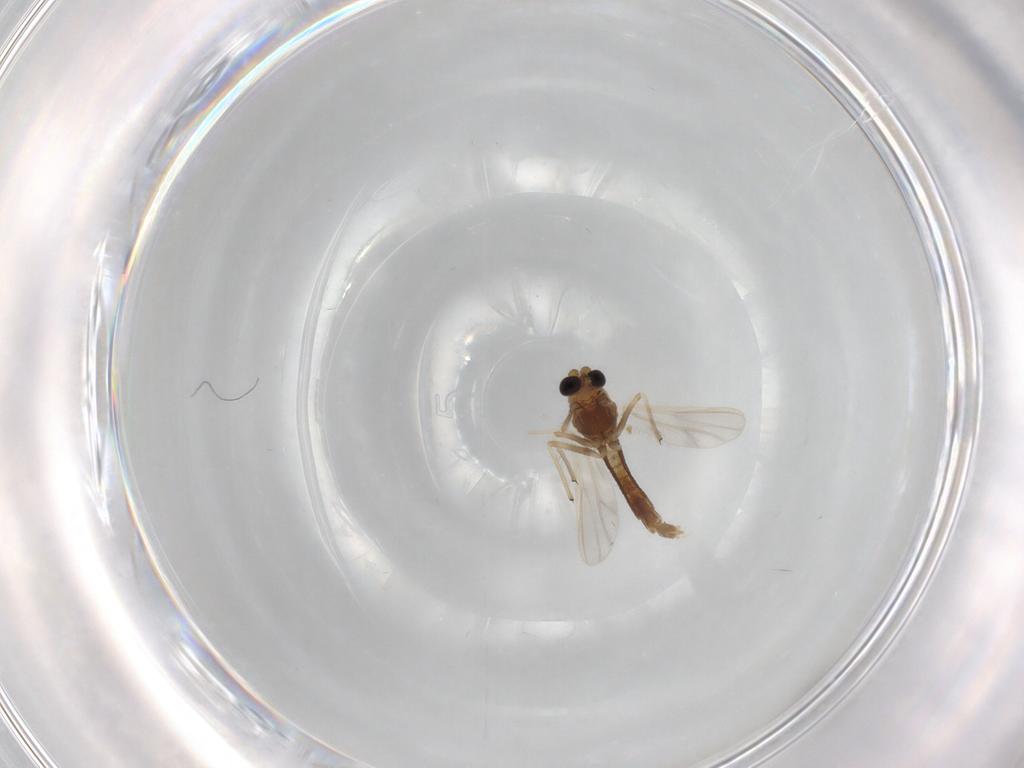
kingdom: Animalia
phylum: Arthropoda
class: Insecta
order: Diptera
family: Chironomidae
